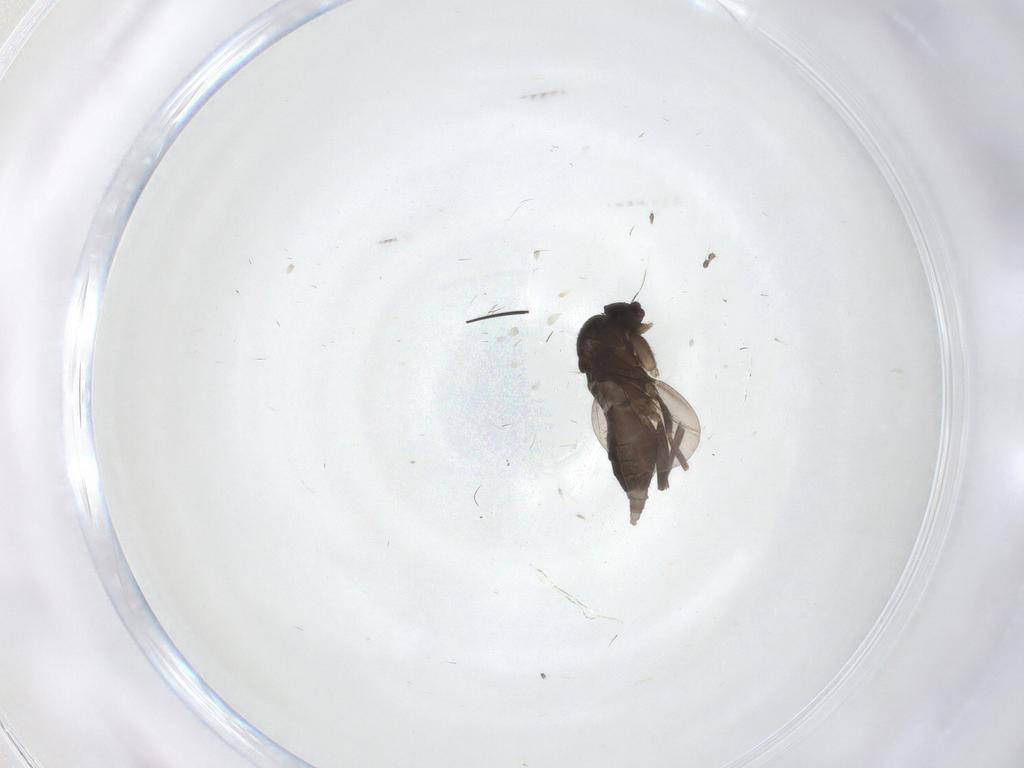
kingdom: Animalia
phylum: Arthropoda
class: Insecta
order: Diptera
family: Phoridae
